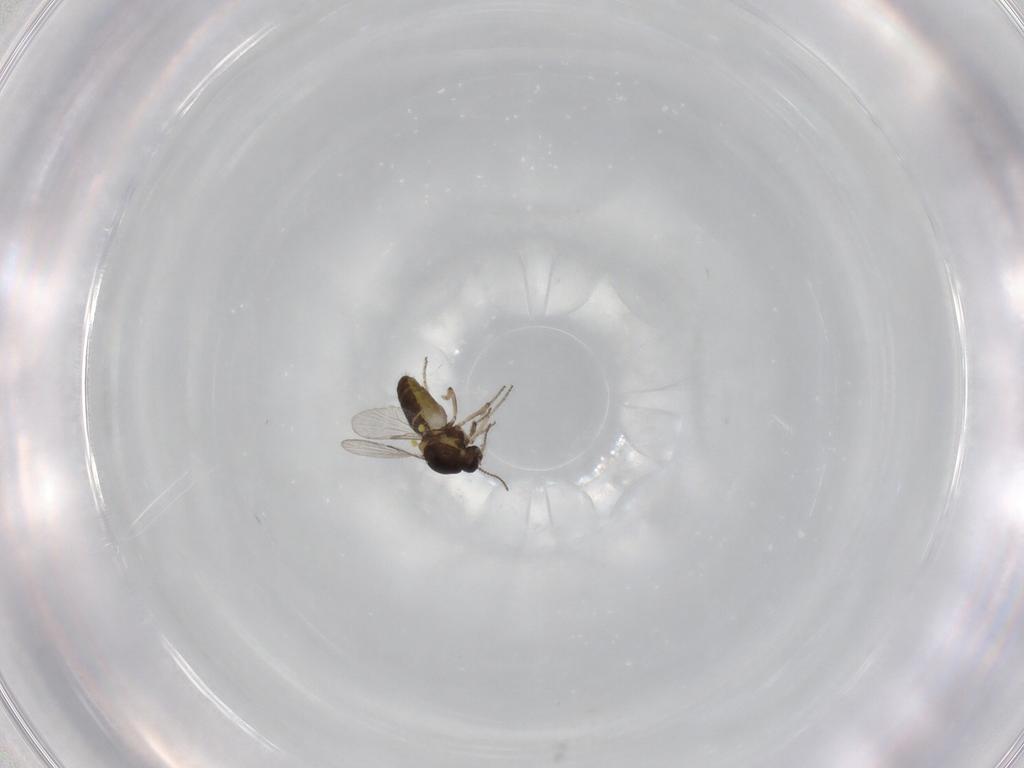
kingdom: Animalia
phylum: Arthropoda
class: Insecta
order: Diptera
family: Ceratopogonidae
